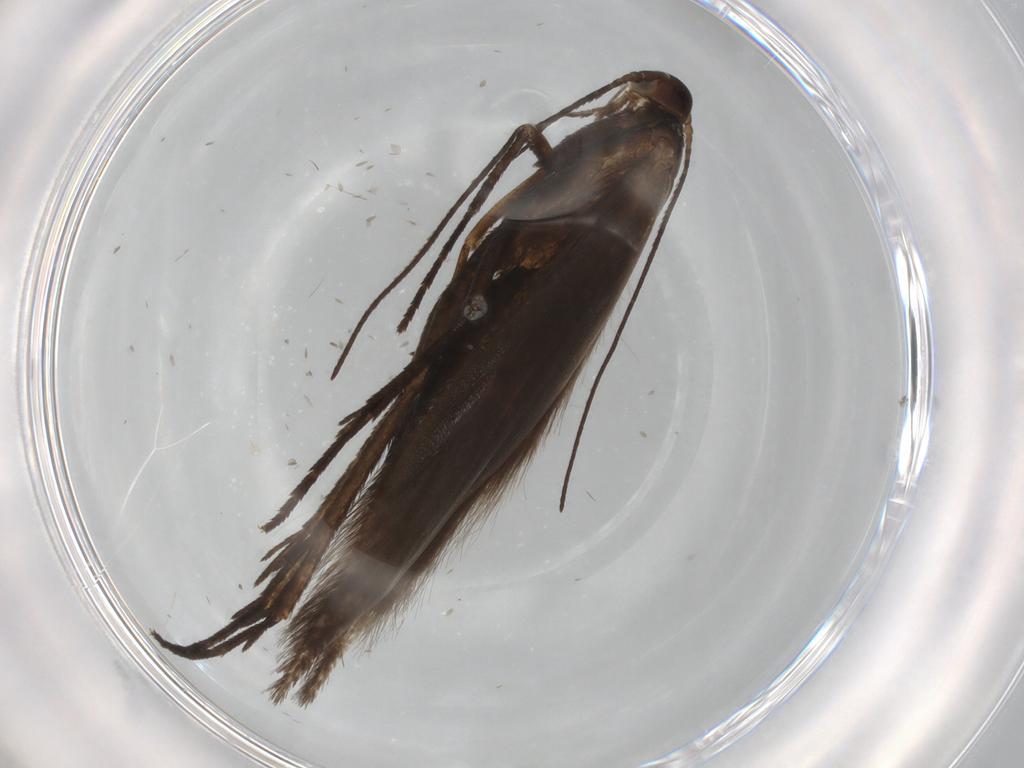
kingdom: Animalia
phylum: Arthropoda
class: Insecta
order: Lepidoptera
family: Coleophoridae
